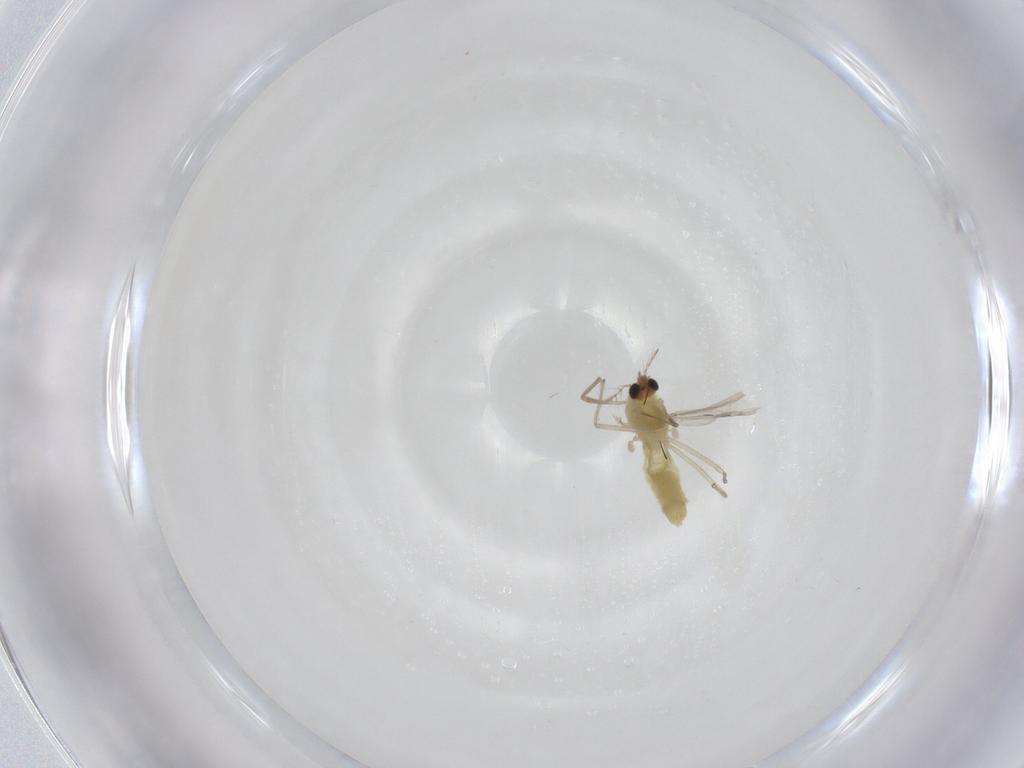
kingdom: Animalia
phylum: Arthropoda
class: Insecta
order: Diptera
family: Chironomidae
